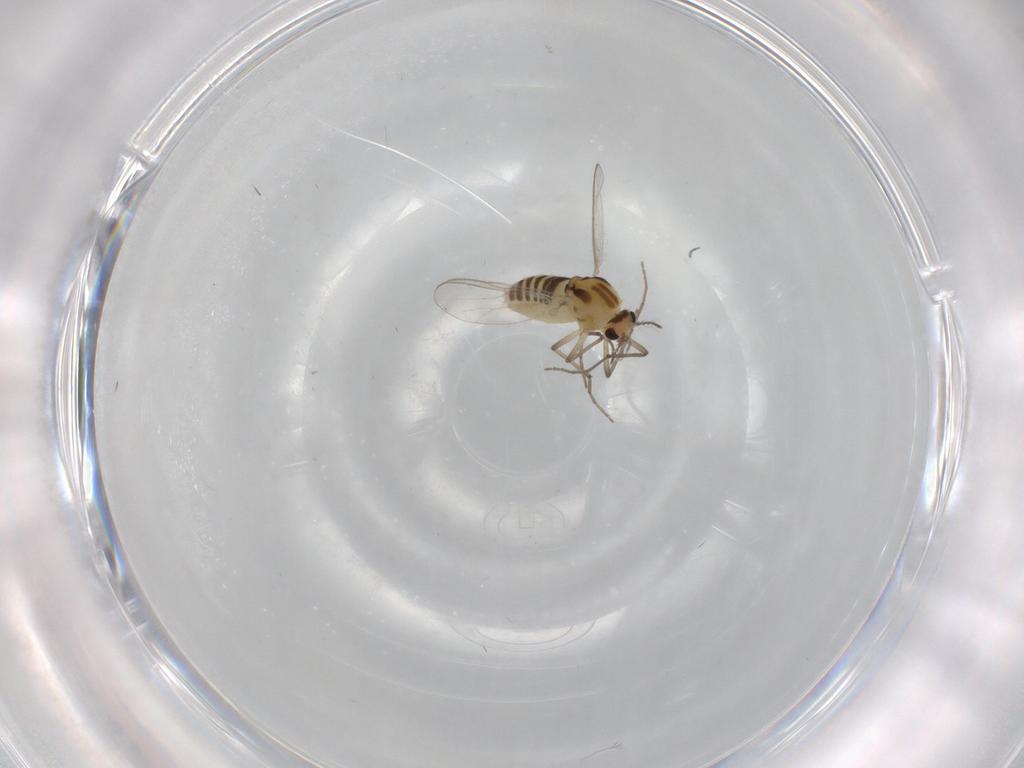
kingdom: Animalia
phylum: Arthropoda
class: Insecta
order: Diptera
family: Chironomidae
